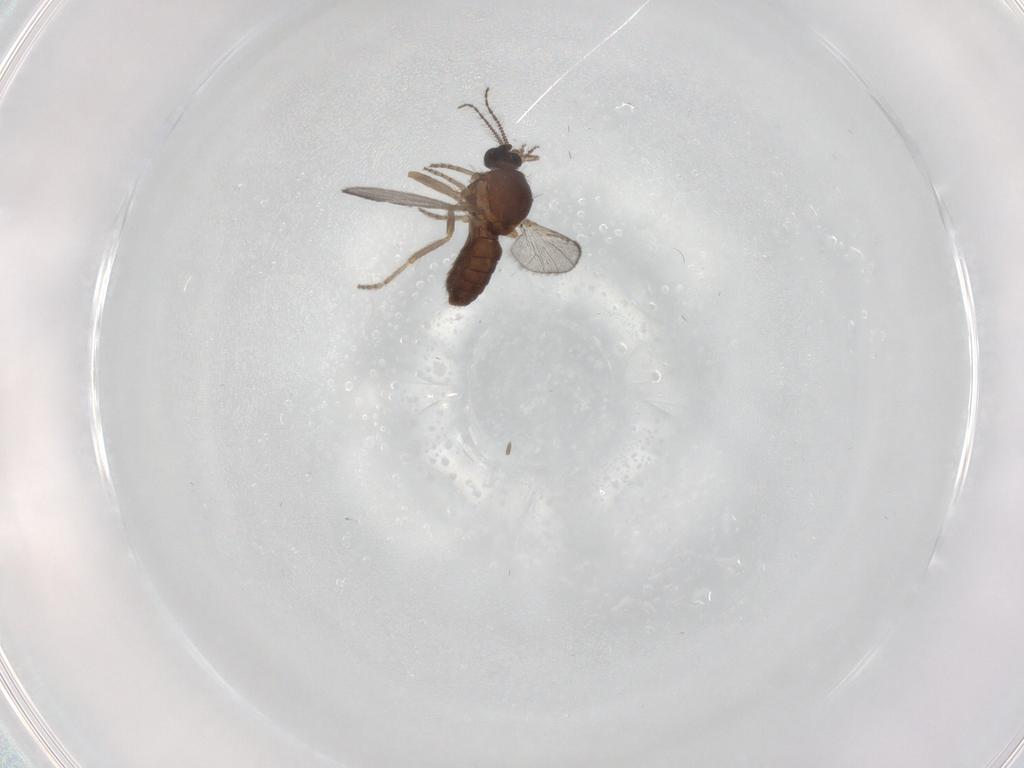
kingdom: Animalia
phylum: Arthropoda
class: Insecta
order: Diptera
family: Ceratopogonidae
